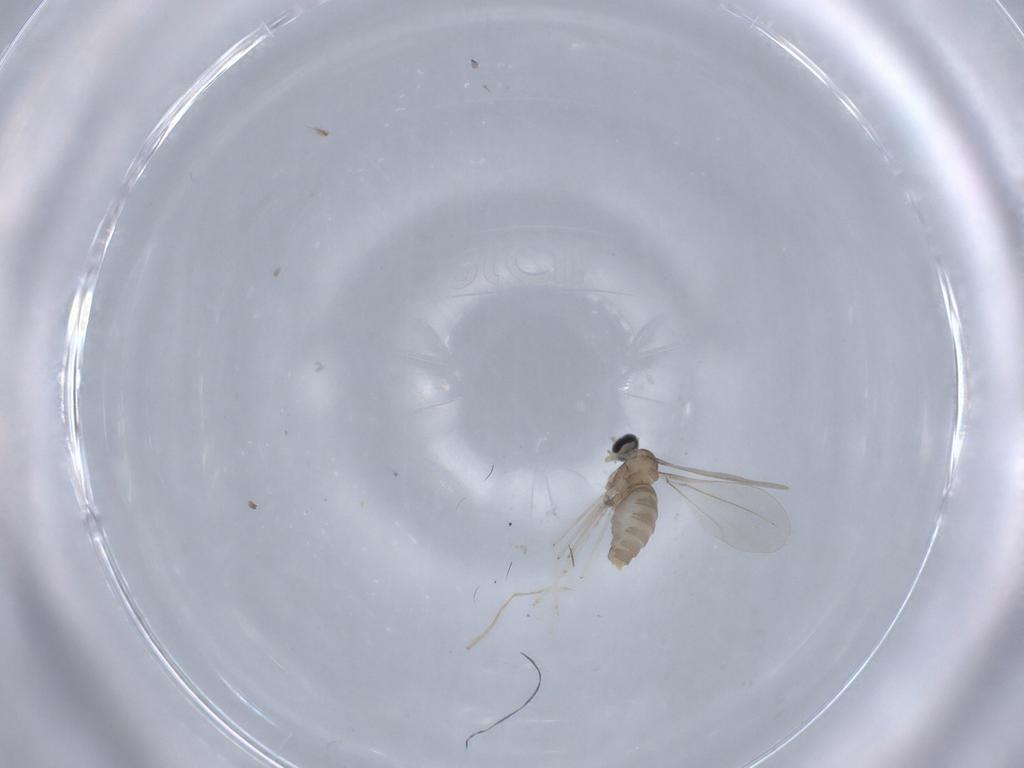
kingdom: Animalia
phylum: Arthropoda
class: Insecta
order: Diptera
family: Cecidomyiidae
